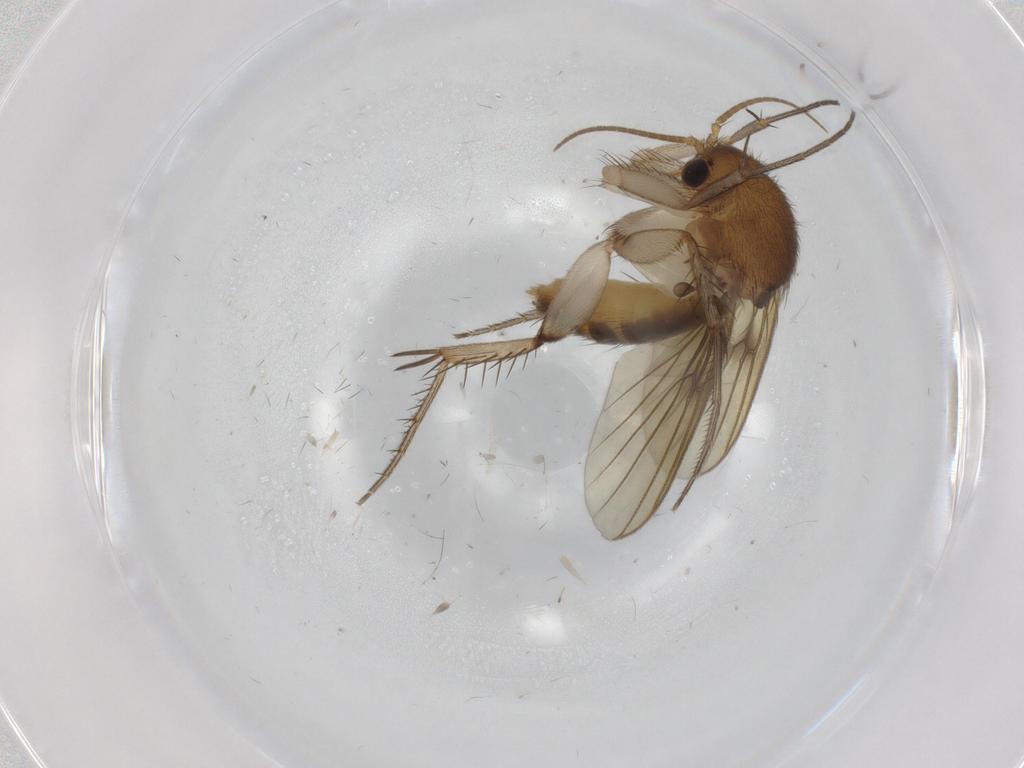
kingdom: Animalia
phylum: Arthropoda
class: Insecta
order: Diptera
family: Mycetophilidae
